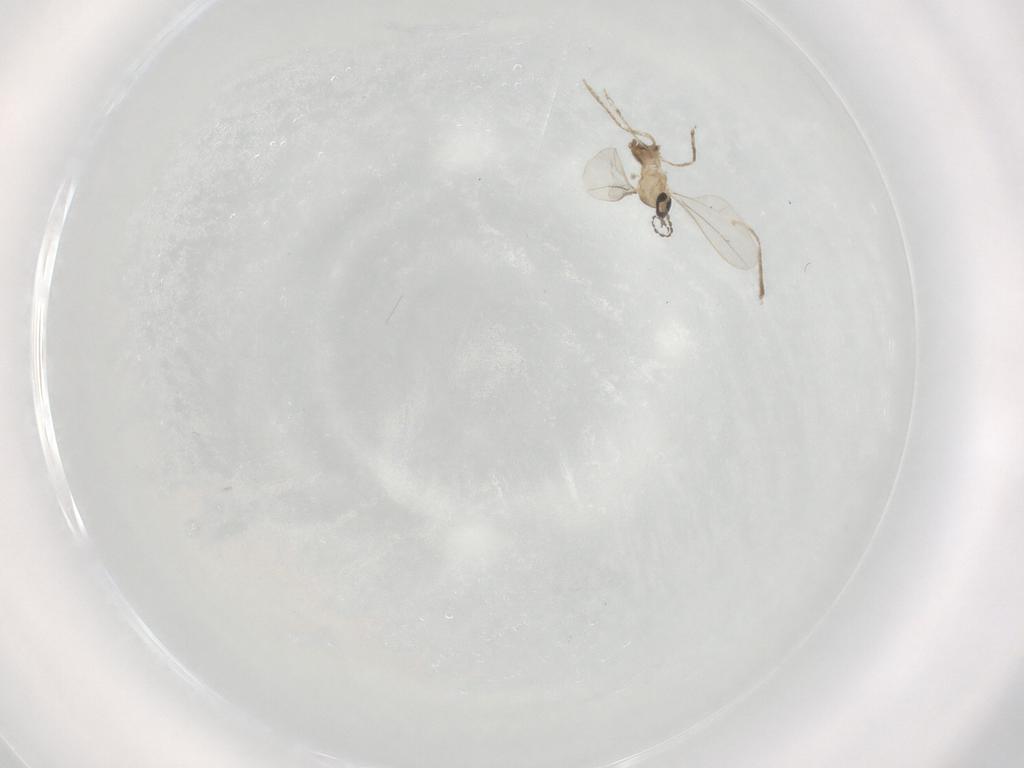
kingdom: Animalia
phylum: Arthropoda
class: Insecta
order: Diptera
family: Cecidomyiidae
